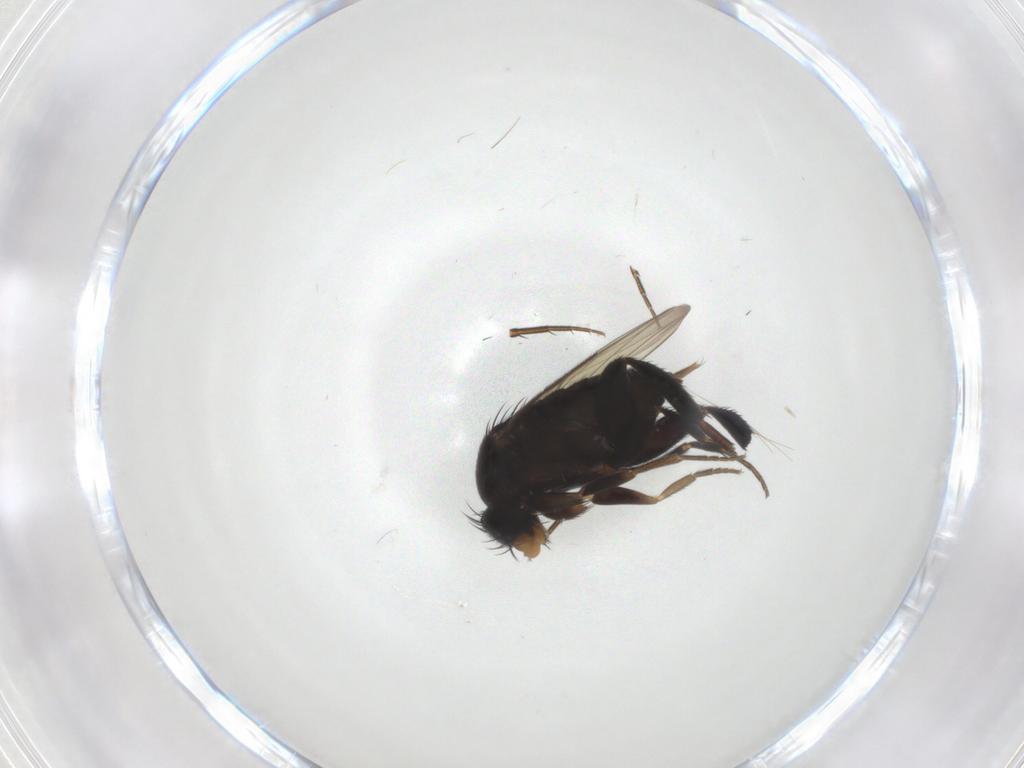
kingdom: Animalia
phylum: Arthropoda
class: Insecta
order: Diptera
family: Phoridae
